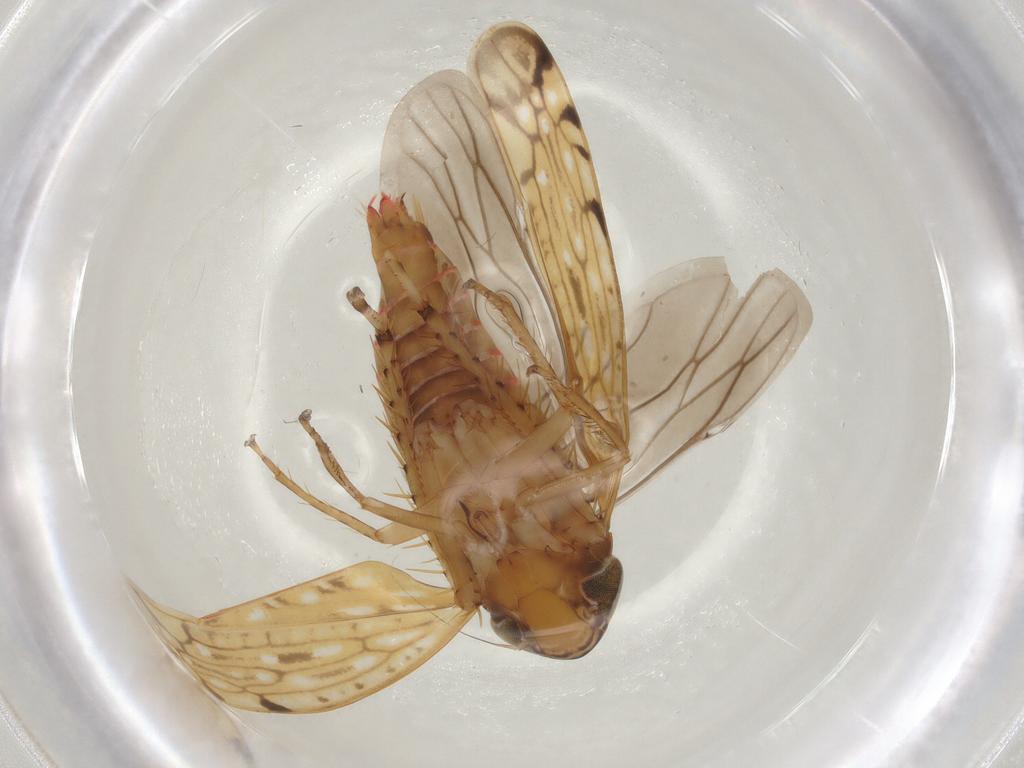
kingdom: Animalia
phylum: Arthropoda
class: Insecta
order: Hemiptera
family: Cicadellidae
